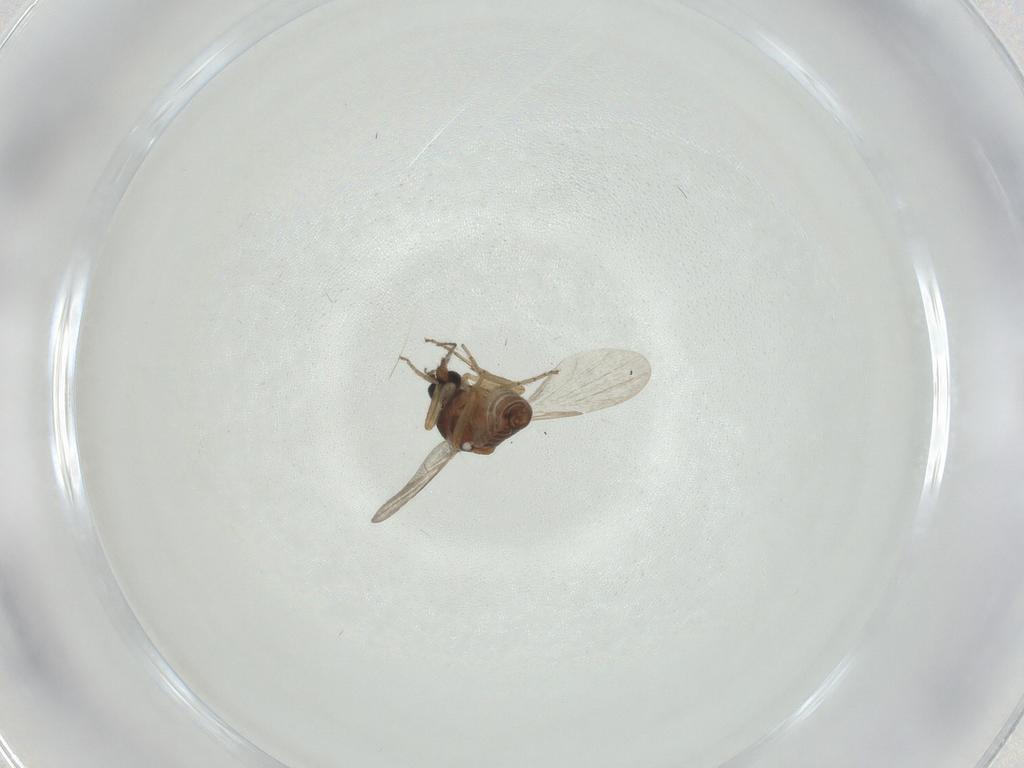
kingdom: Animalia
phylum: Arthropoda
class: Insecta
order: Diptera
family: Ceratopogonidae
